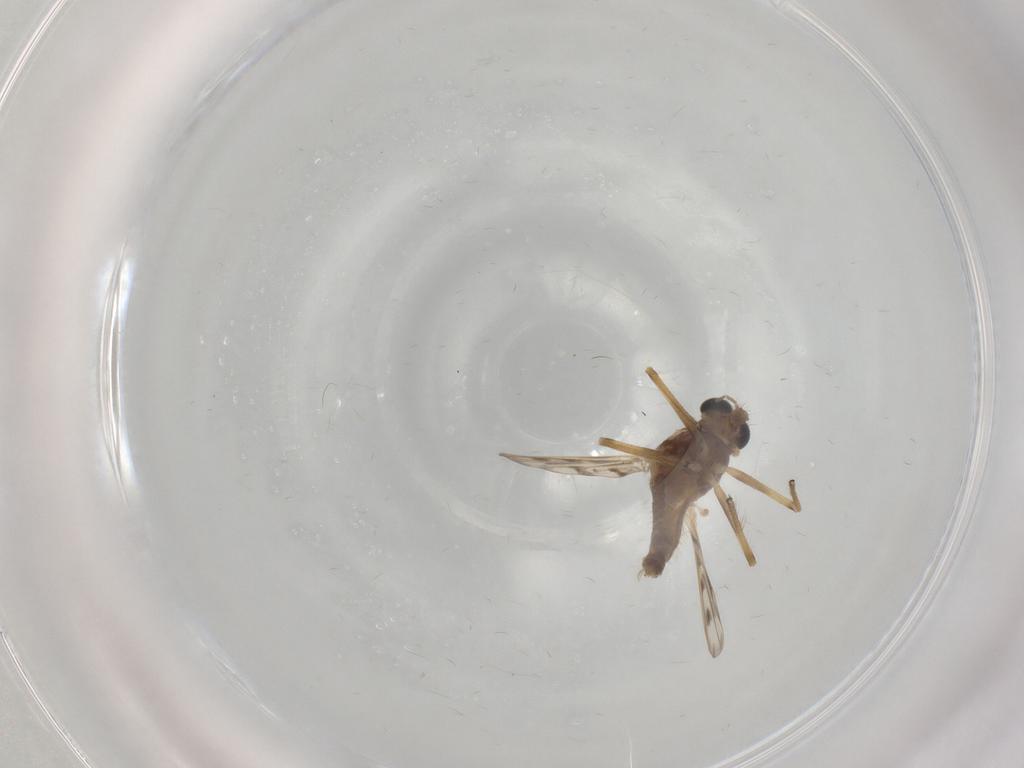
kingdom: Animalia
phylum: Arthropoda
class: Insecta
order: Diptera
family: Chironomidae
